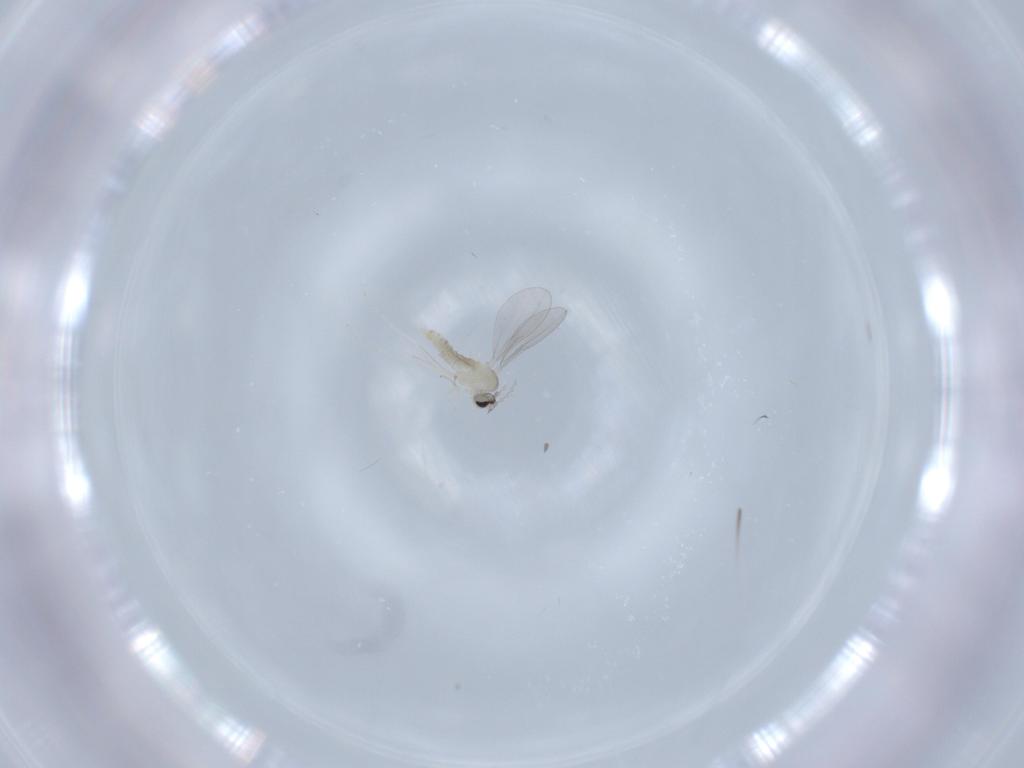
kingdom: Animalia
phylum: Arthropoda
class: Insecta
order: Diptera
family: Cecidomyiidae
